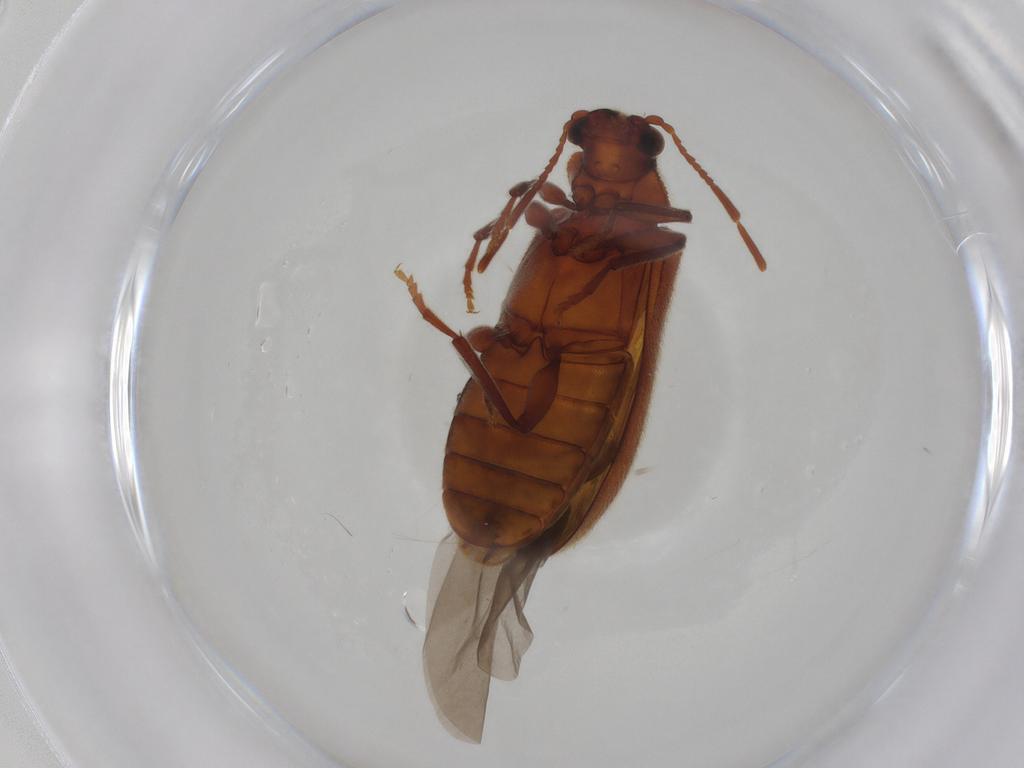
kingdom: Animalia
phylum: Arthropoda
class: Insecta
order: Coleoptera
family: Ptinidae
